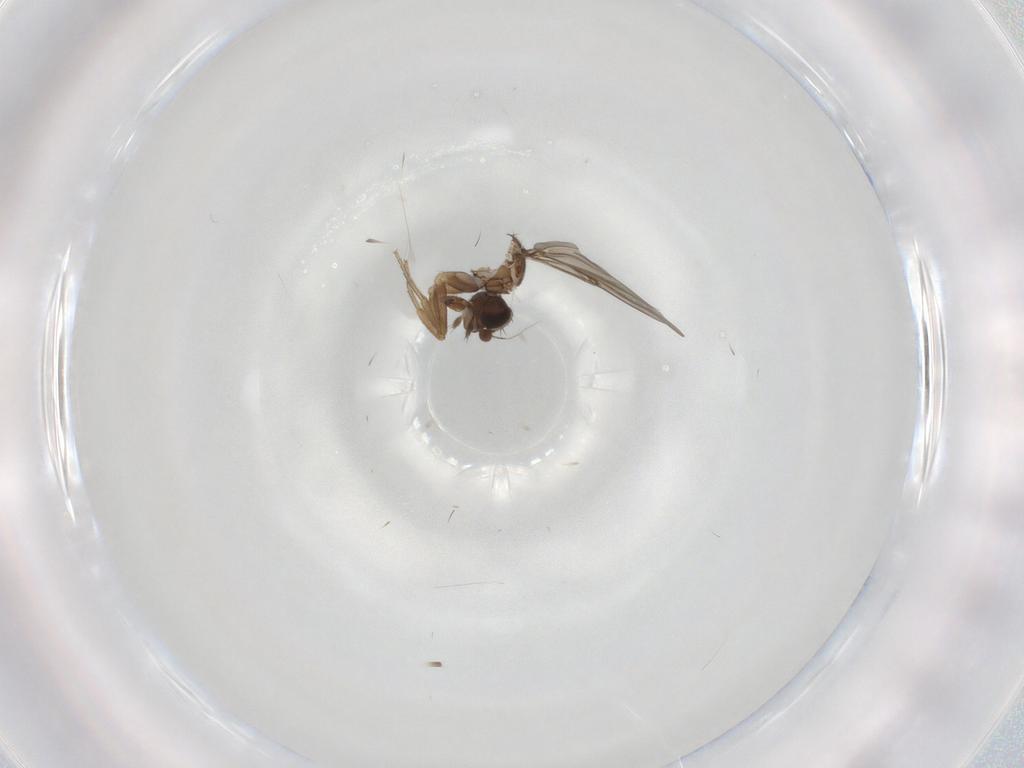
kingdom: Animalia
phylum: Arthropoda
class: Insecta
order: Diptera
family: Phoridae
